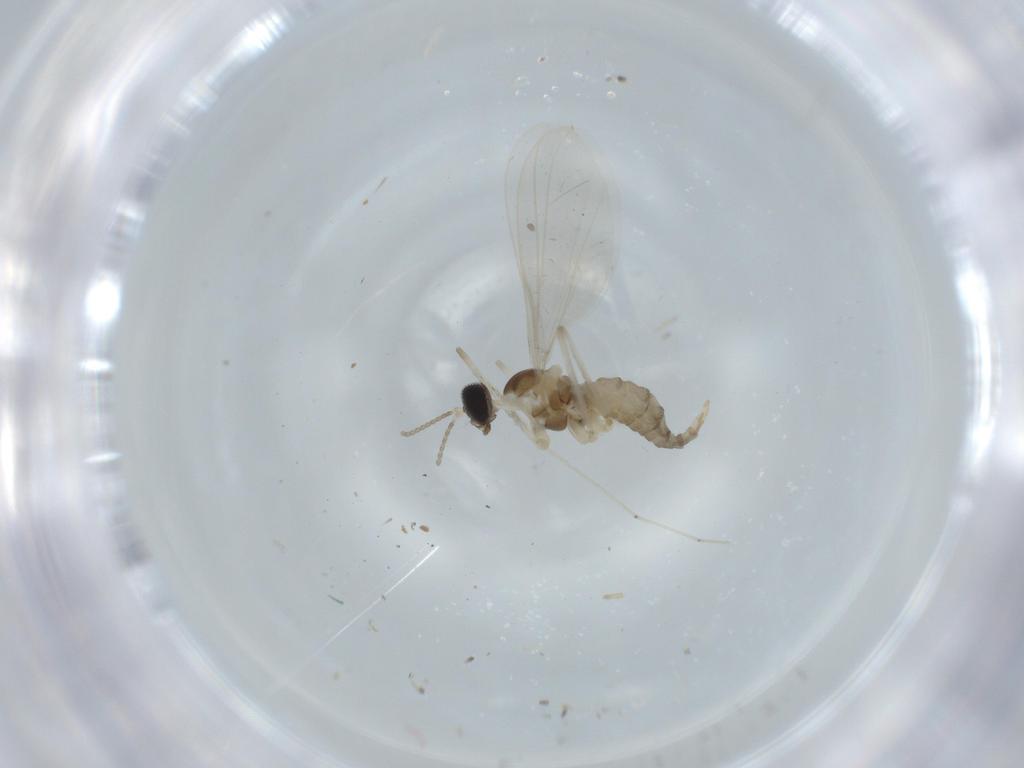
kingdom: Animalia
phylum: Arthropoda
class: Insecta
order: Diptera
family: Cecidomyiidae
